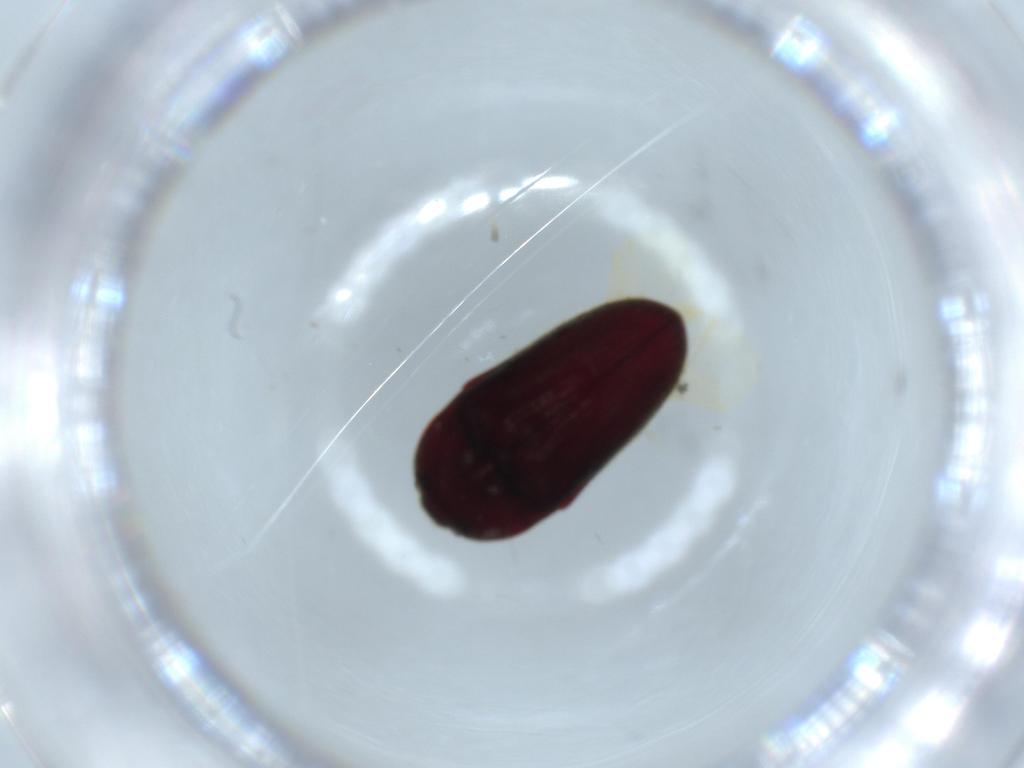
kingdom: Animalia
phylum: Arthropoda
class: Insecta
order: Coleoptera
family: Throscidae
